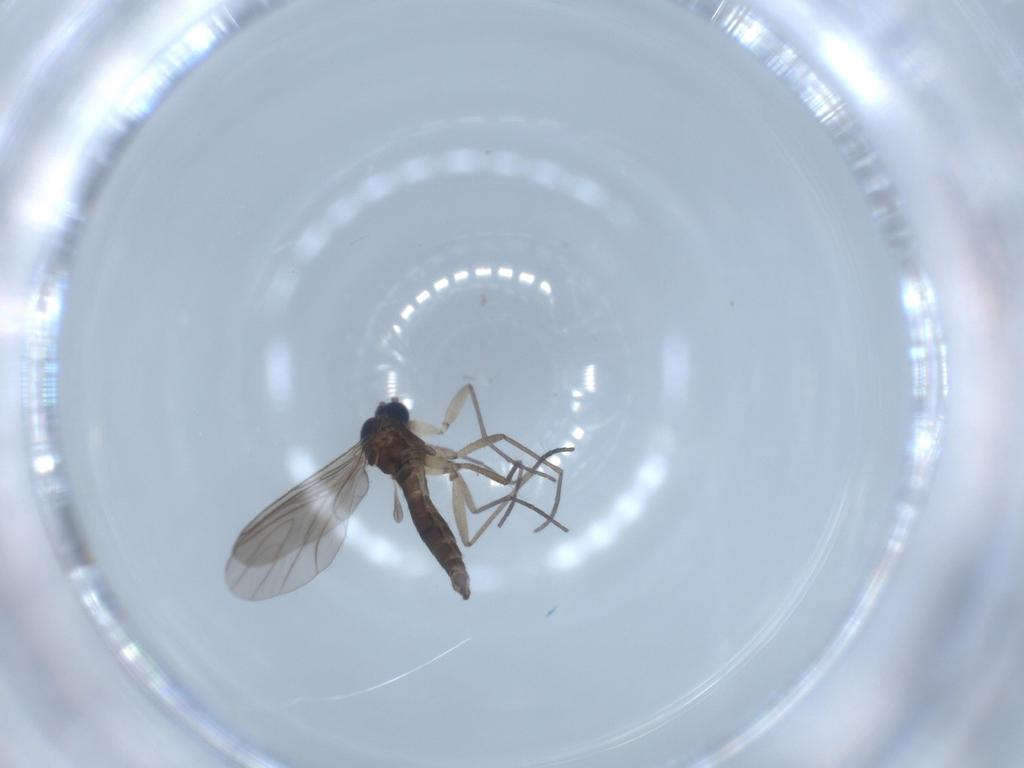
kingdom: Animalia
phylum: Arthropoda
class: Insecta
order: Diptera
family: Sciaridae
